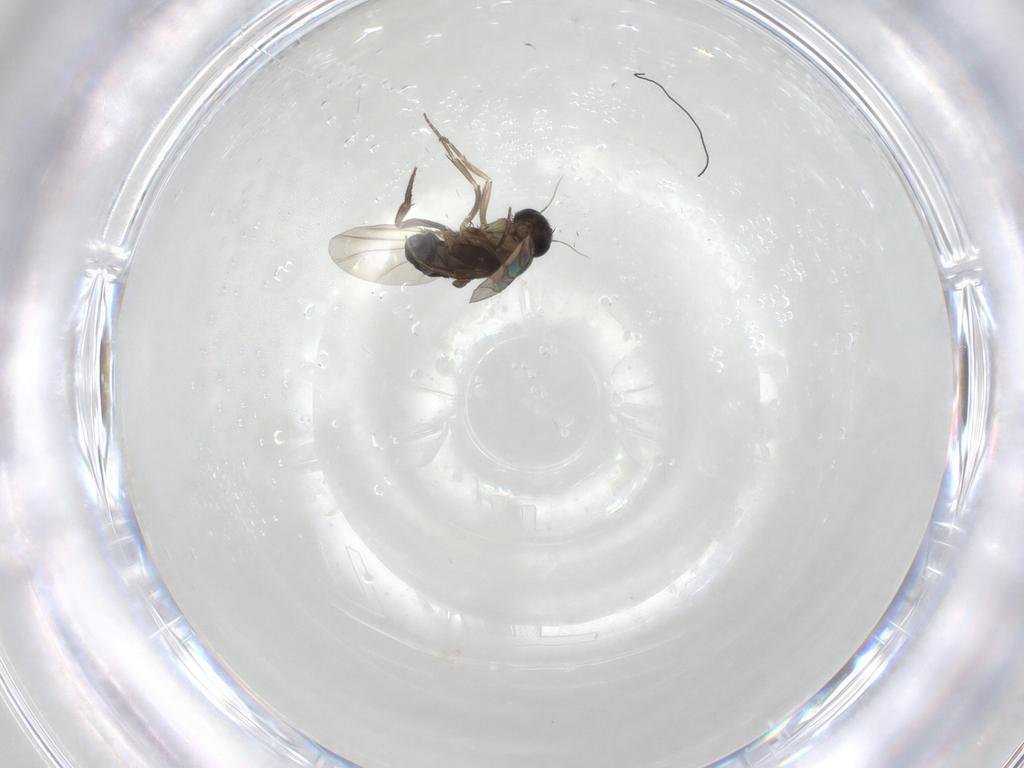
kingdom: Animalia
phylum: Arthropoda
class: Insecta
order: Diptera
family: Phoridae
